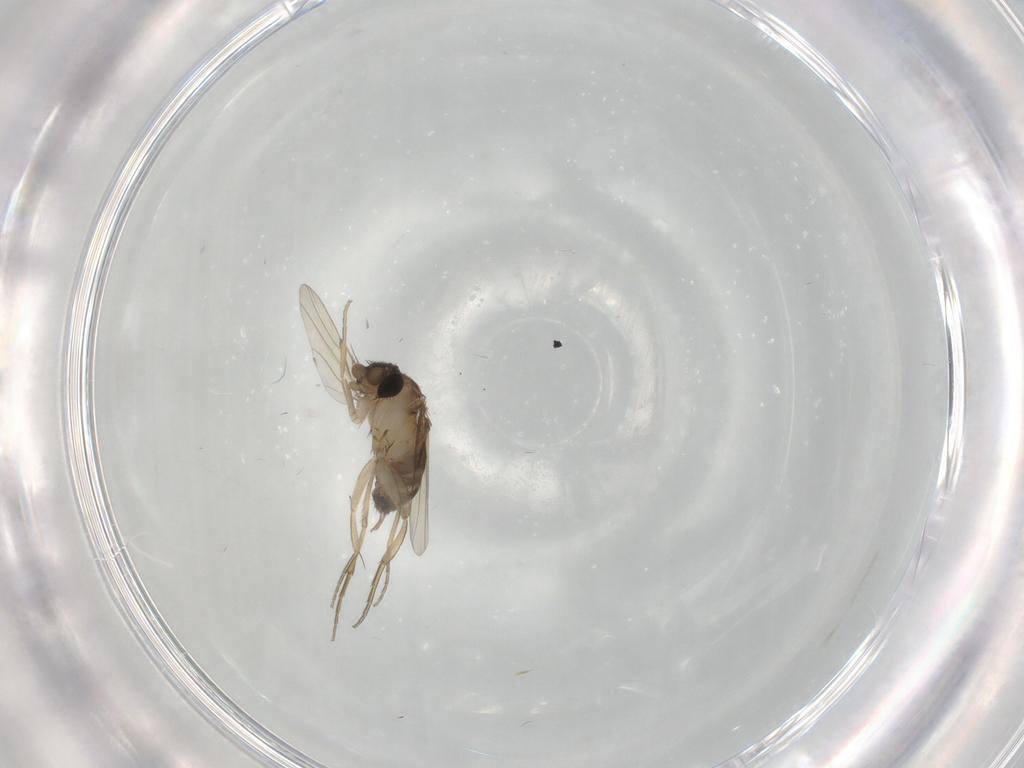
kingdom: Animalia
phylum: Arthropoda
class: Insecta
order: Diptera
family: Phoridae
